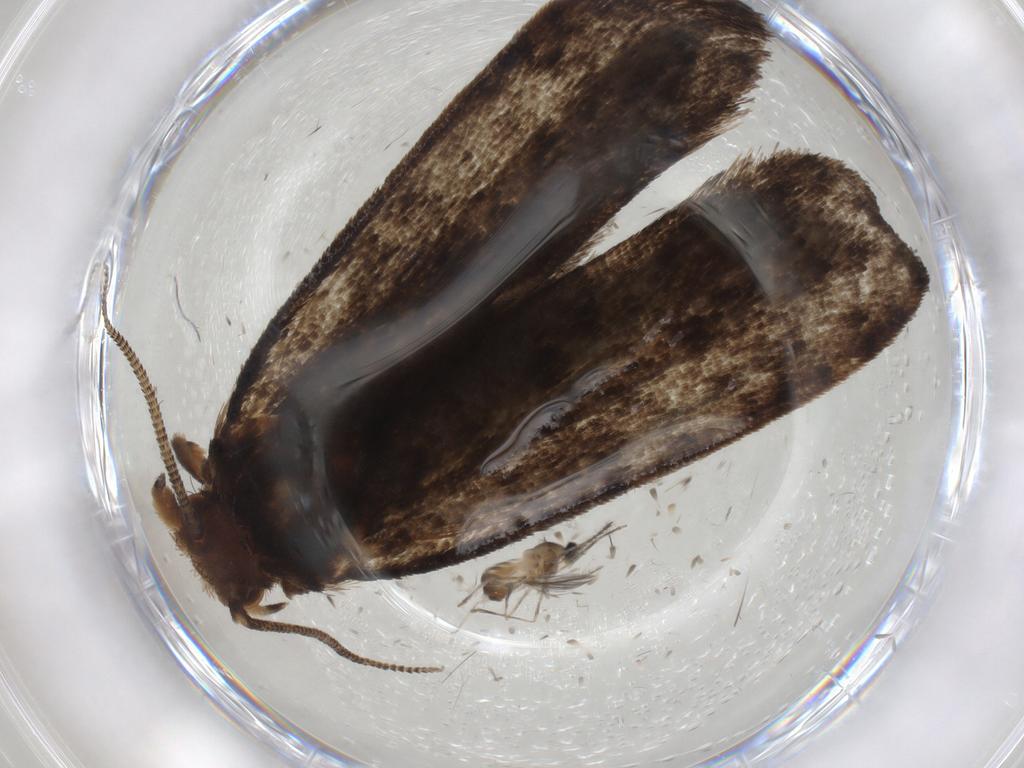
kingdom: Animalia
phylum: Arthropoda
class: Insecta
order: Lepidoptera
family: Tineidae
